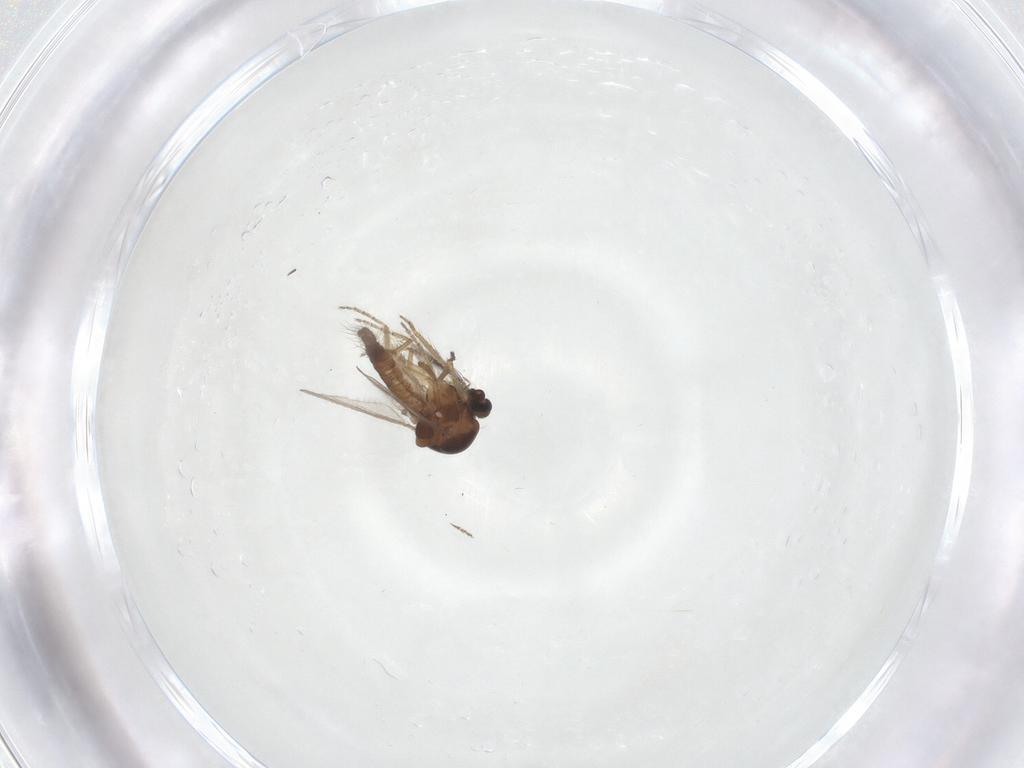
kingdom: Animalia
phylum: Arthropoda
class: Insecta
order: Diptera
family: Ceratopogonidae
